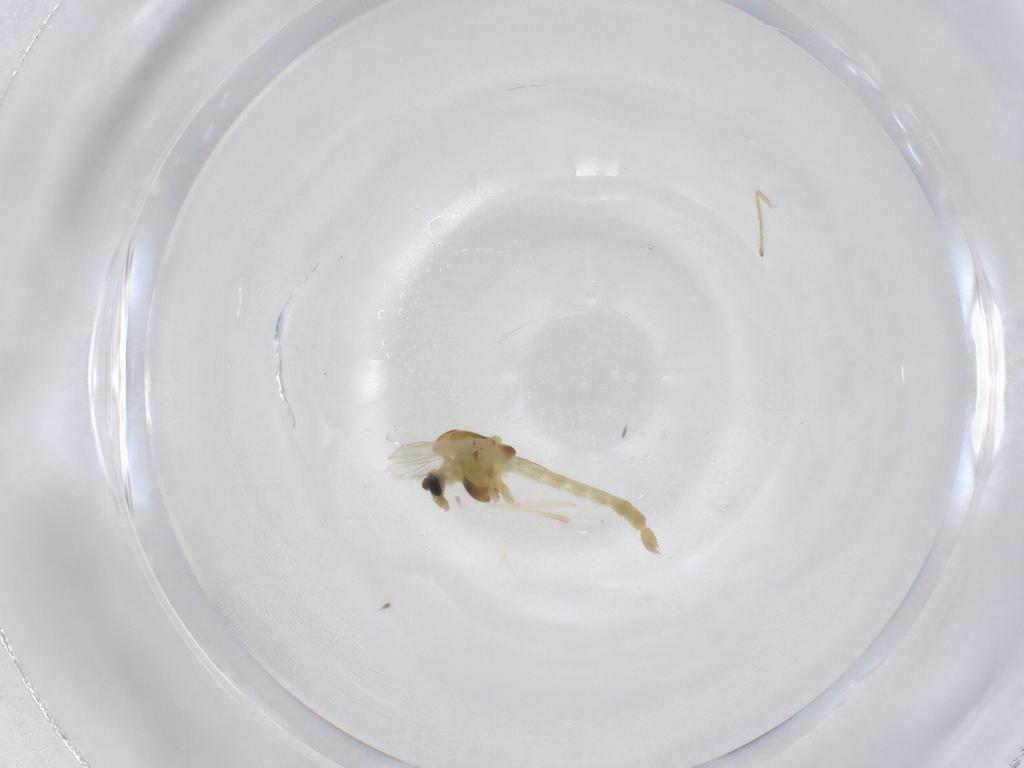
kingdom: Animalia
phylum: Arthropoda
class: Insecta
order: Diptera
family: Chironomidae
